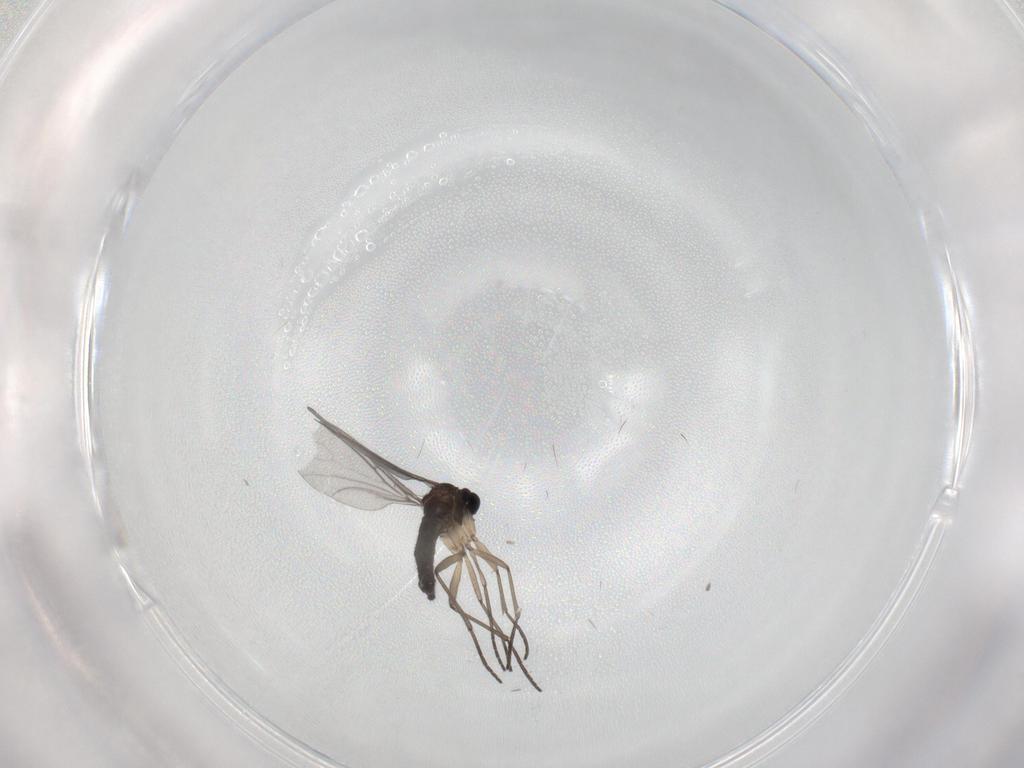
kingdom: Animalia
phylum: Arthropoda
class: Insecta
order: Diptera
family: Sciaridae
